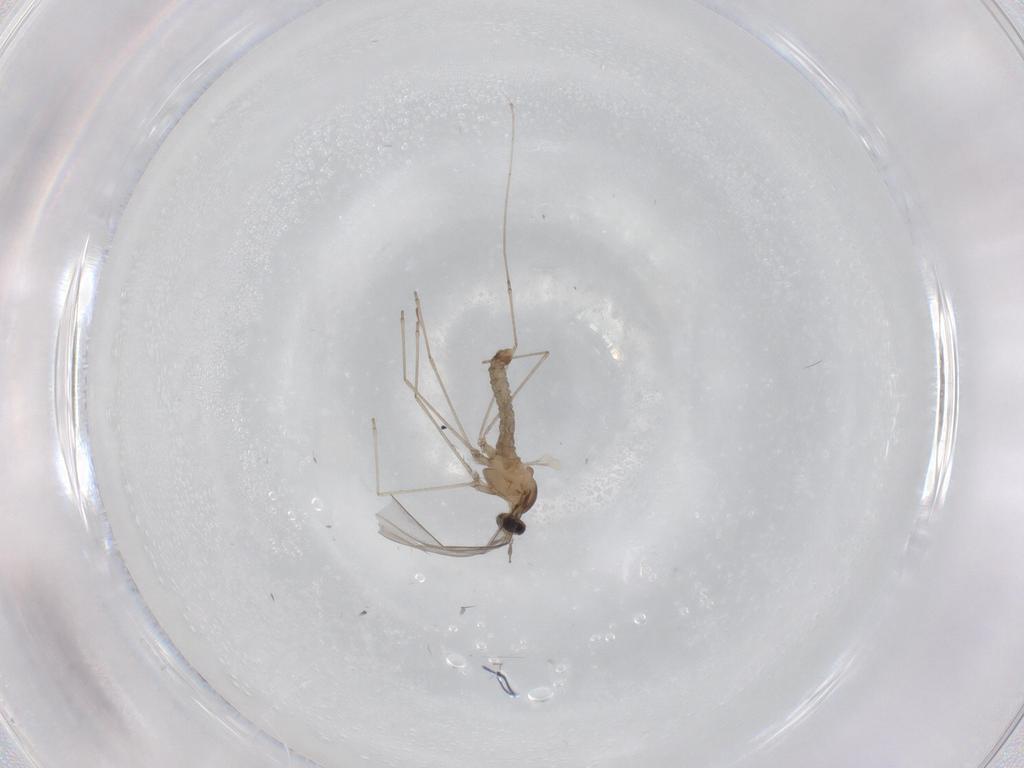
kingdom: Animalia
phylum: Arthropoda
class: Insecta
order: Diptera
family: Cecidomyiidae
